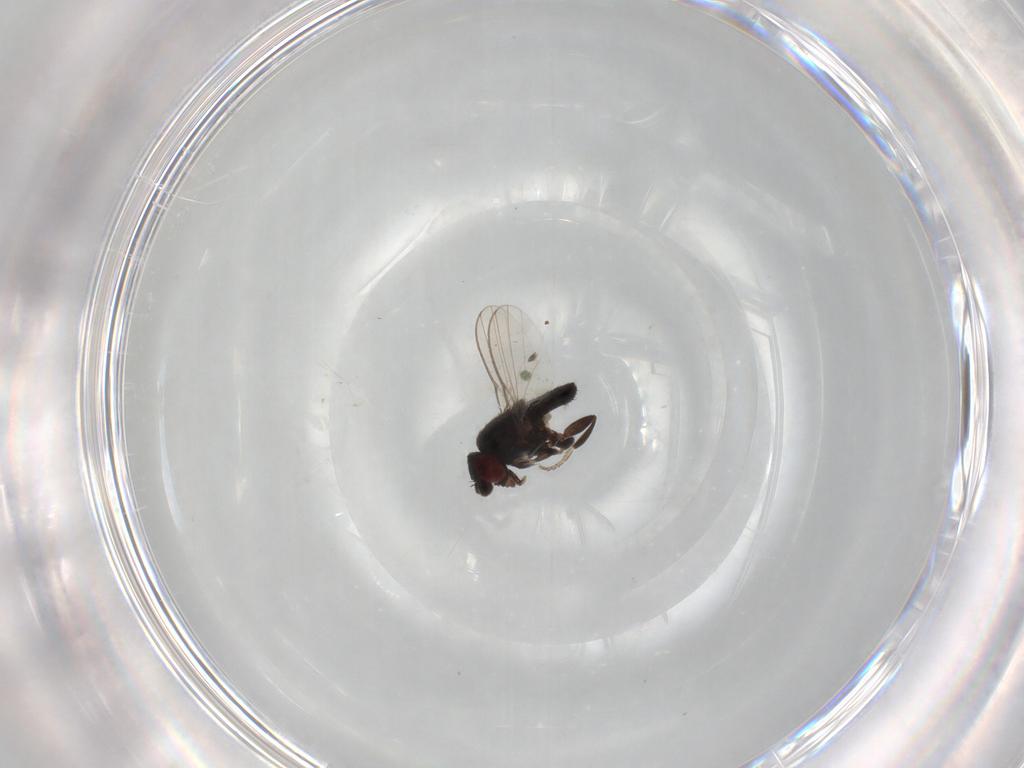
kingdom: Animalia
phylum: Arthropoda
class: Insecta
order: Diptera
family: Milichiidae
